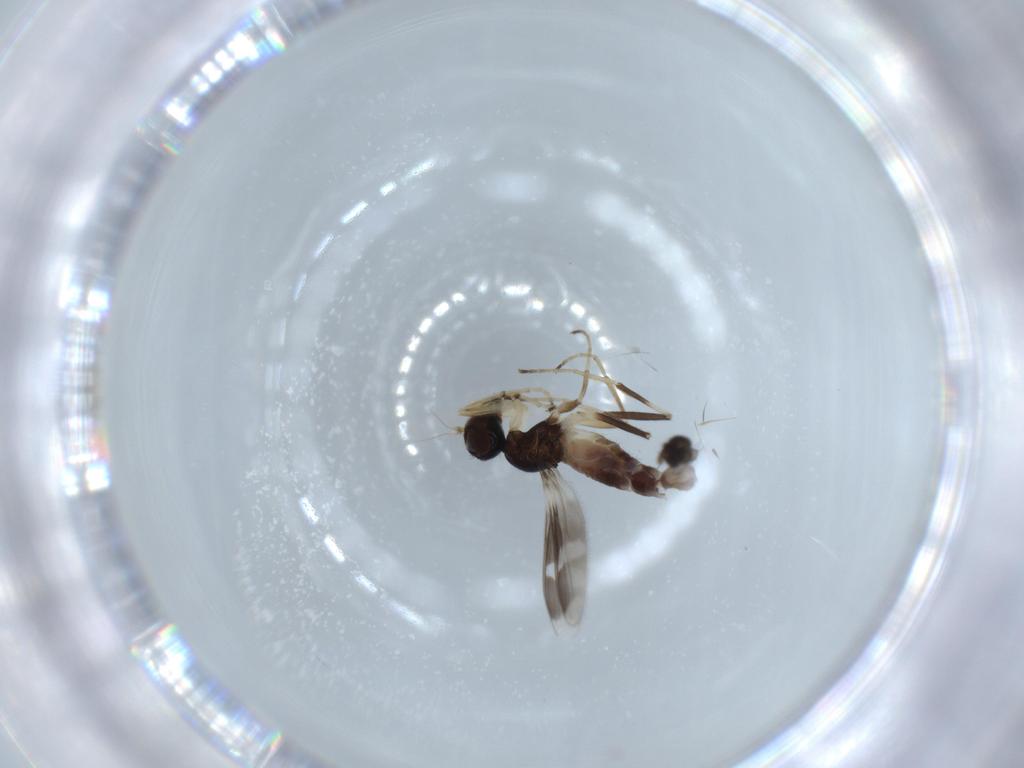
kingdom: Animalia
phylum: Arthropoda
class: Insecta
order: Diptera
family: Hybotidae
